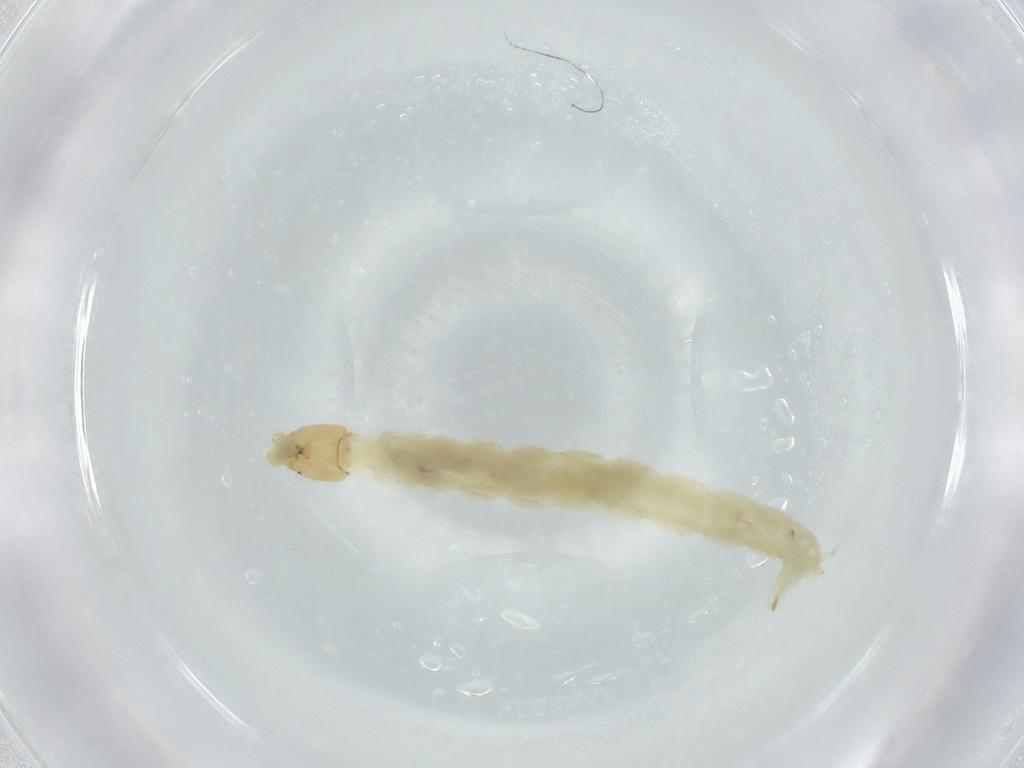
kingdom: Animalia
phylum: Arthropoda
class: Insecta
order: Diptera
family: Chironomidae
